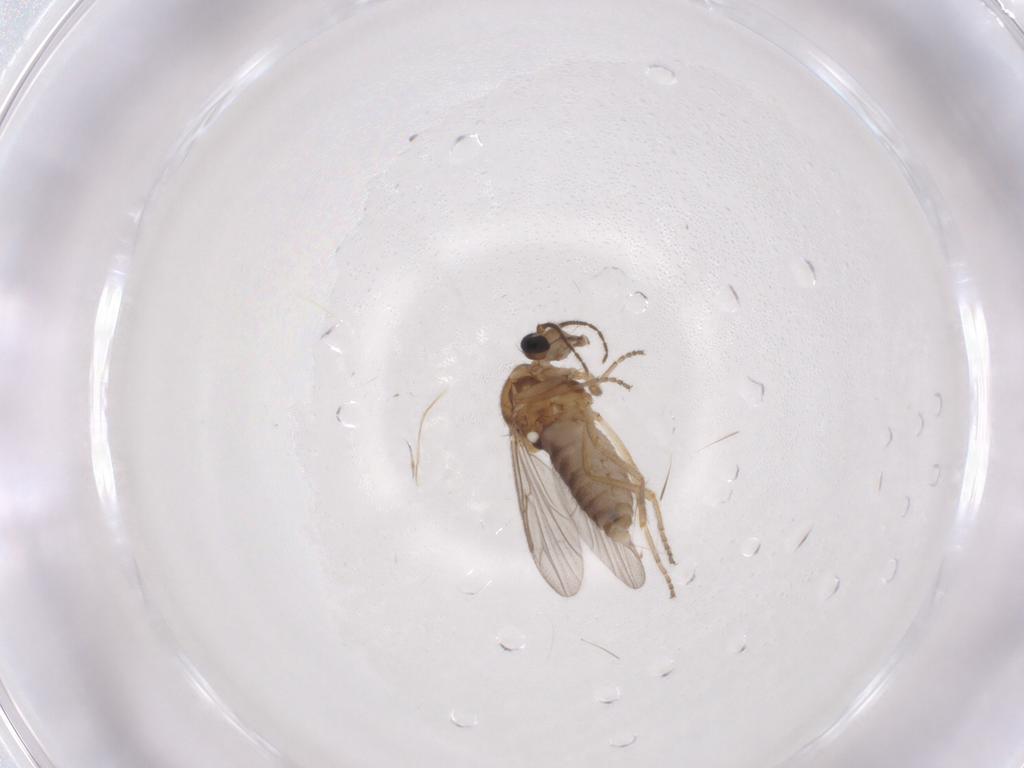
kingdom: Animalia
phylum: Arthropoda
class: Insecta
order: Diptera
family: Ceratopogonidae
